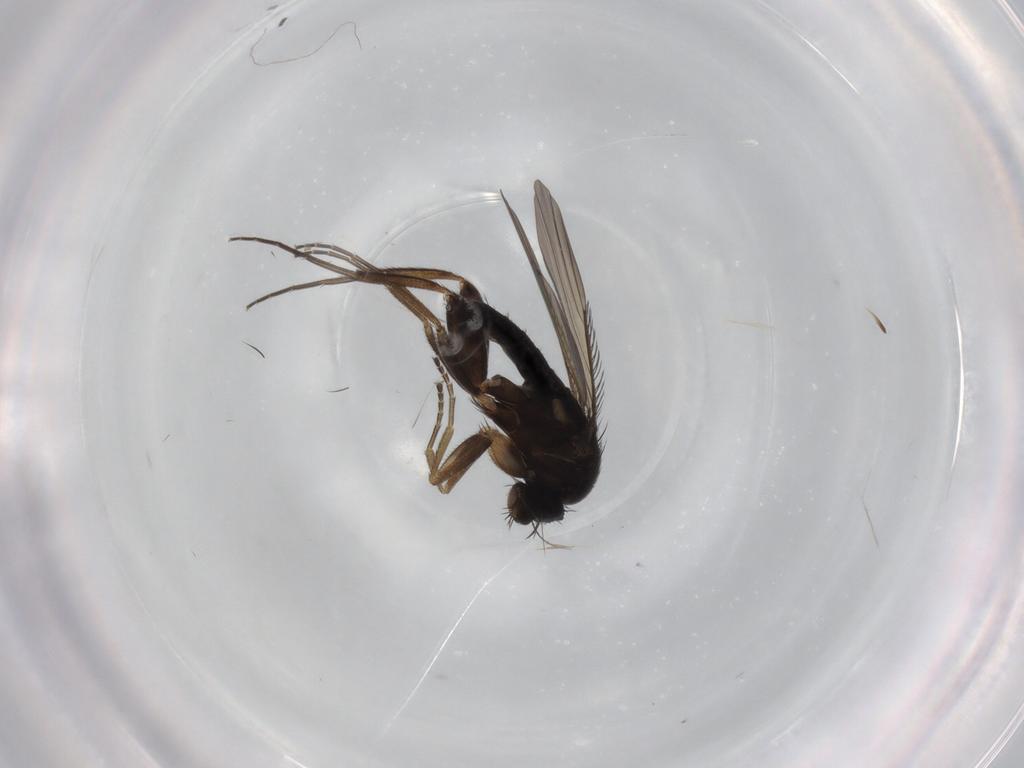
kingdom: Animalia
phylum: Arthropoda
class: Insecta
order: Diptera
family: Phoridae
